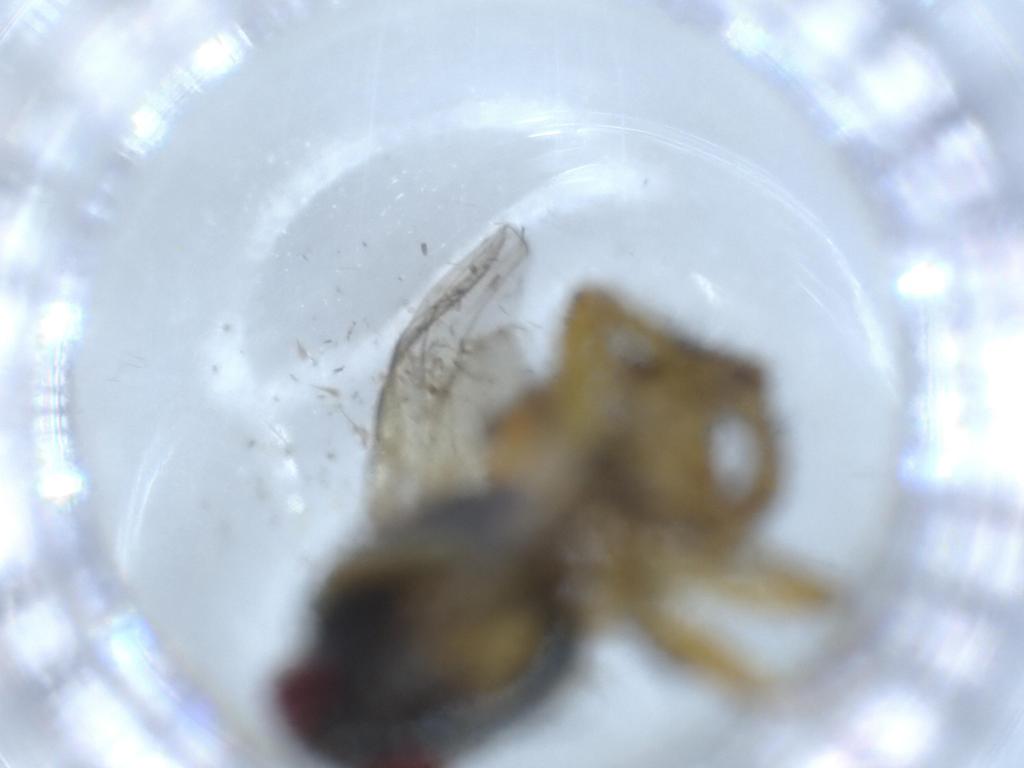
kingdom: Animalia
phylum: Arthropoda
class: Insecta
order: Diptera
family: Muscidae
